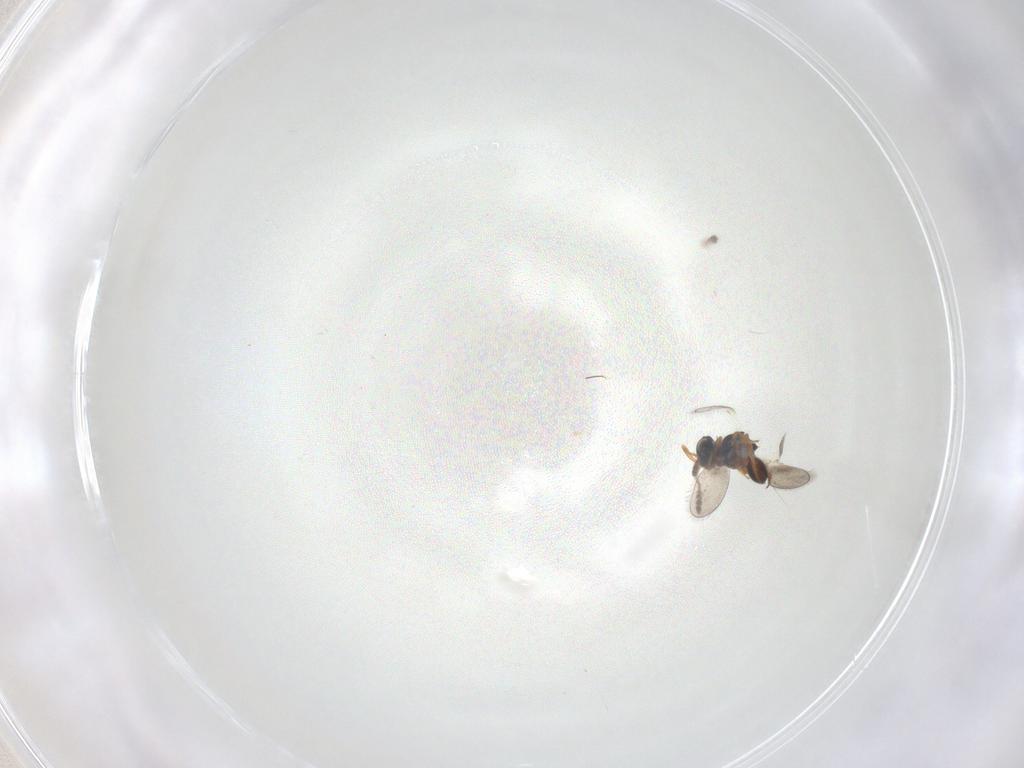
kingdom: Animalia
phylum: Arthropoda
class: Insecta
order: Hymenoptera
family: Platygastridae
